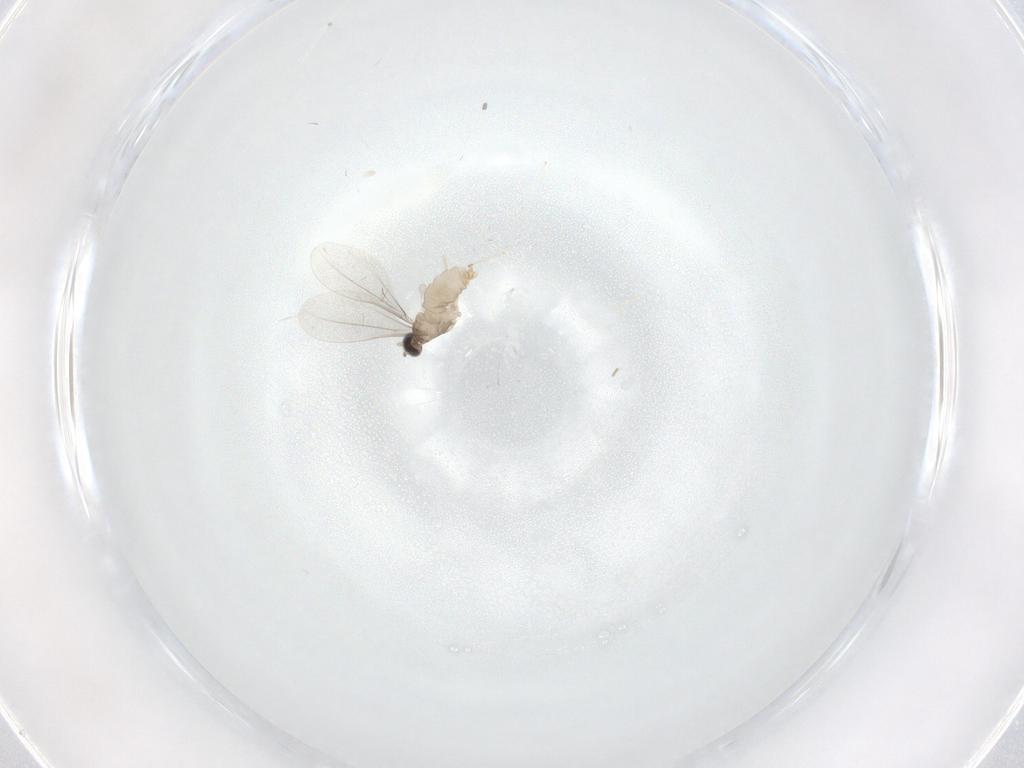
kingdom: Animalia
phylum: Arthropoda
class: Insecta
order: Diptera
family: Cecidomyiidae
